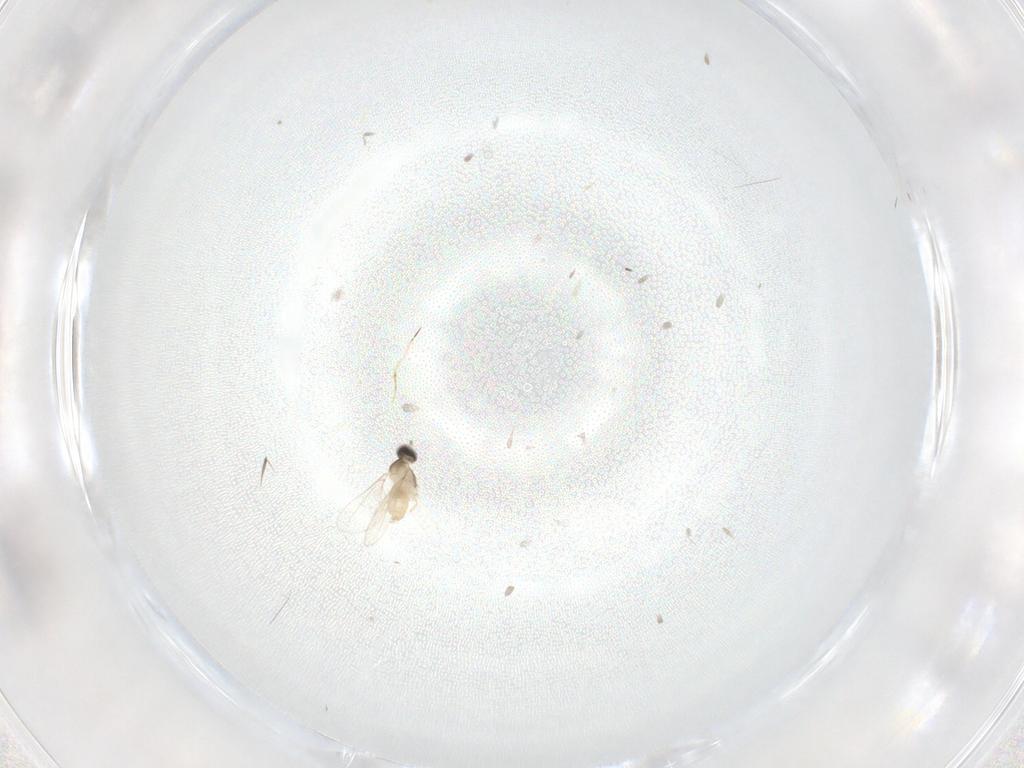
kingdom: Animalia
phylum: Arthropoda
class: Insecta
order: Diptera
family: Cecidomyiidae
